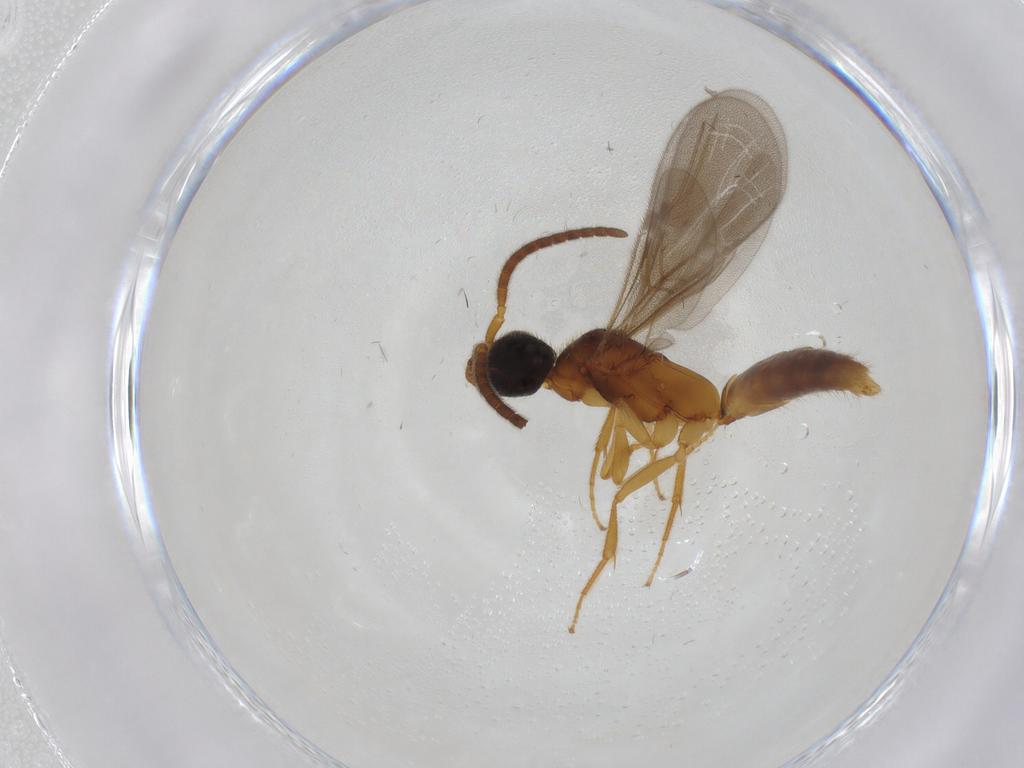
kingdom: Animalia
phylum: Arthropoda
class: Insecta
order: Hymenoptera
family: Bethylidae
